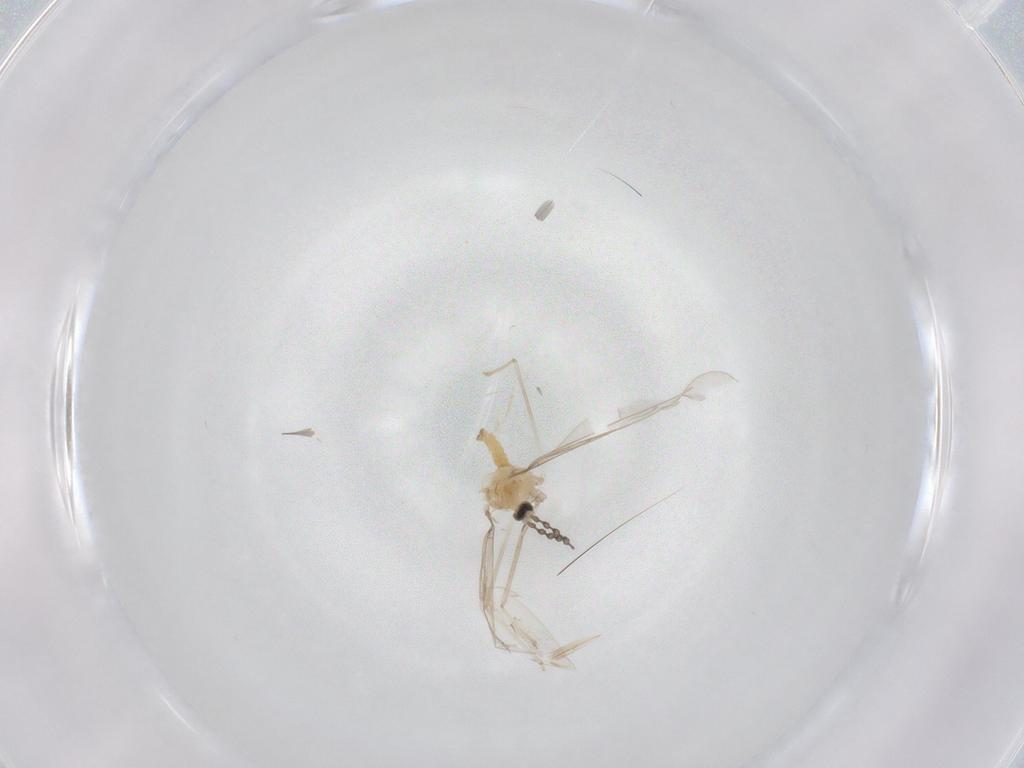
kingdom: Animalia
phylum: Arthropoda
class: Insecta
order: Diptera
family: Cecidomyiidae
